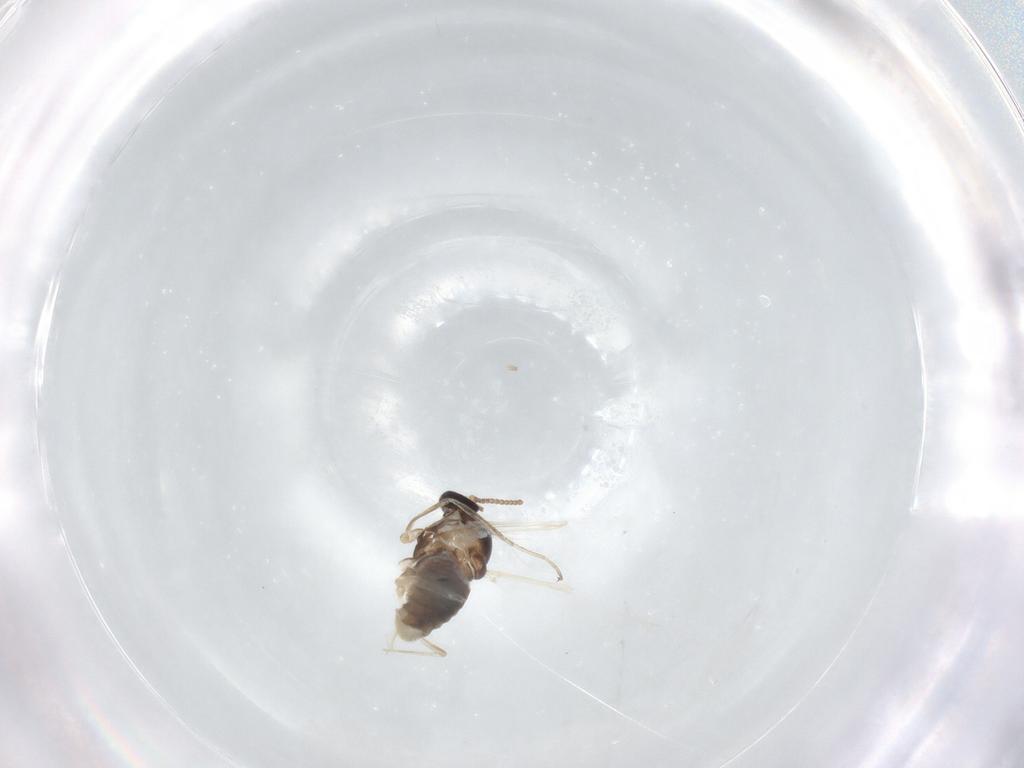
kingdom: Animalia
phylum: Arthropoda
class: Insecta
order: Diptera
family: Cecidomyiidae
